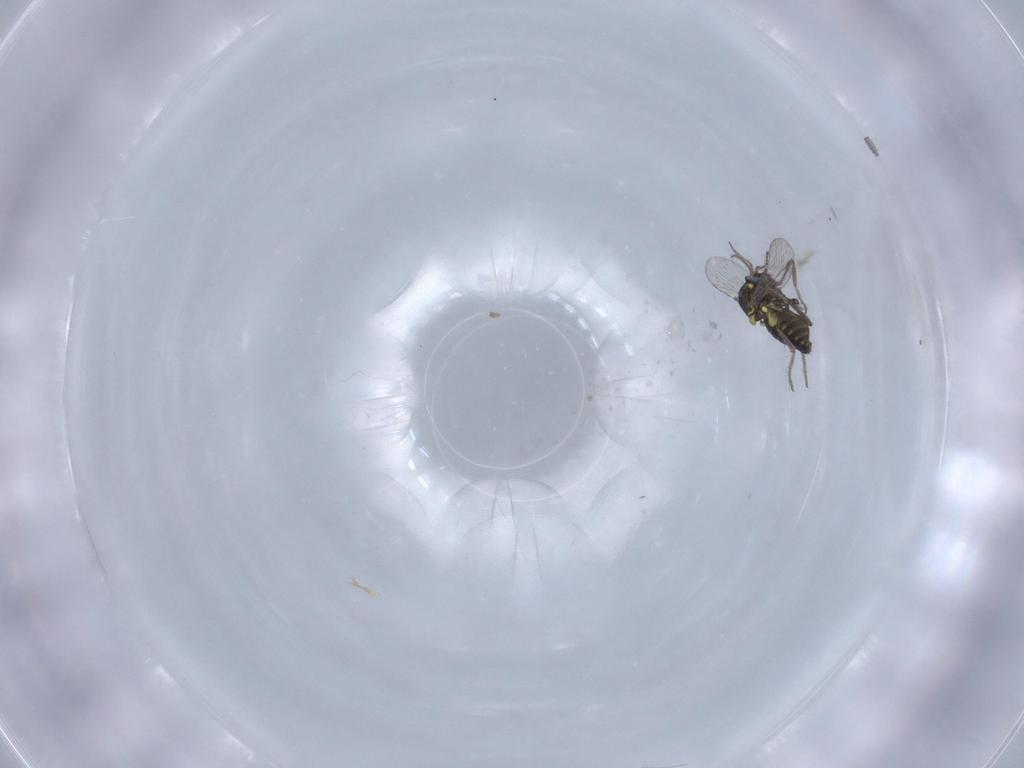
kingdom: Animalia
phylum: Arthropoda
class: Insecta
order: Diptera
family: Ceratopogonidae
